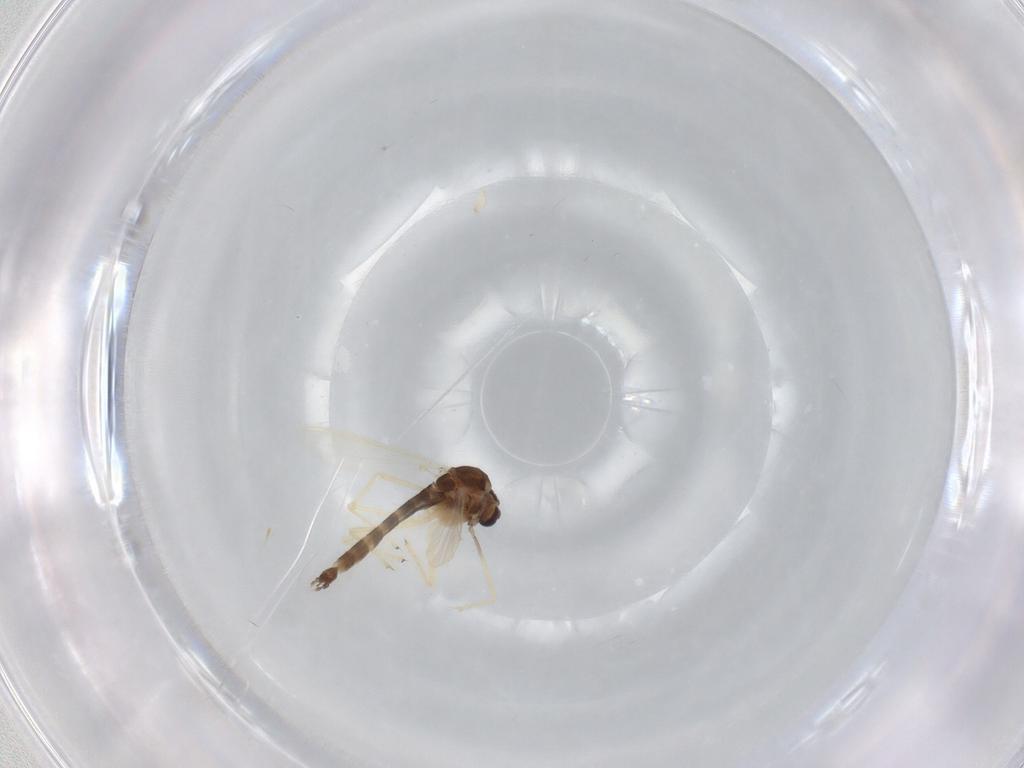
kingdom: Animalia
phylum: Arthropoda
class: Insecta
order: Diptera
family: Chironomidae
